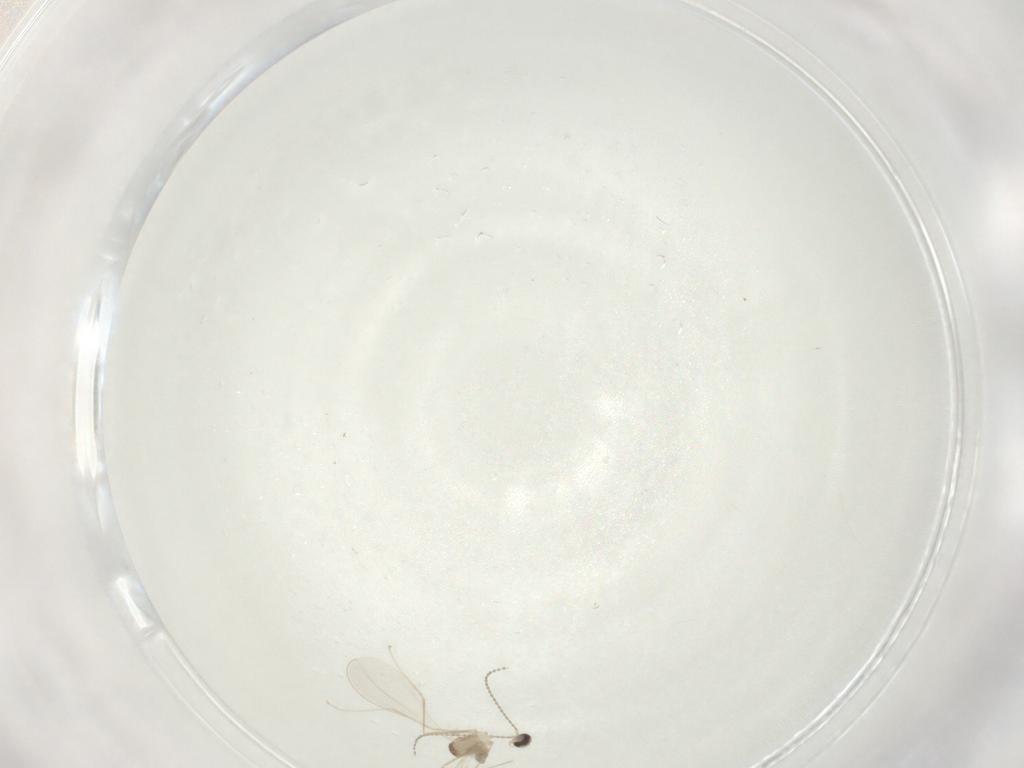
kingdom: Animalia
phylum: Arthropoda
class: Insecta
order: Diptera
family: Cecidomyiidae
